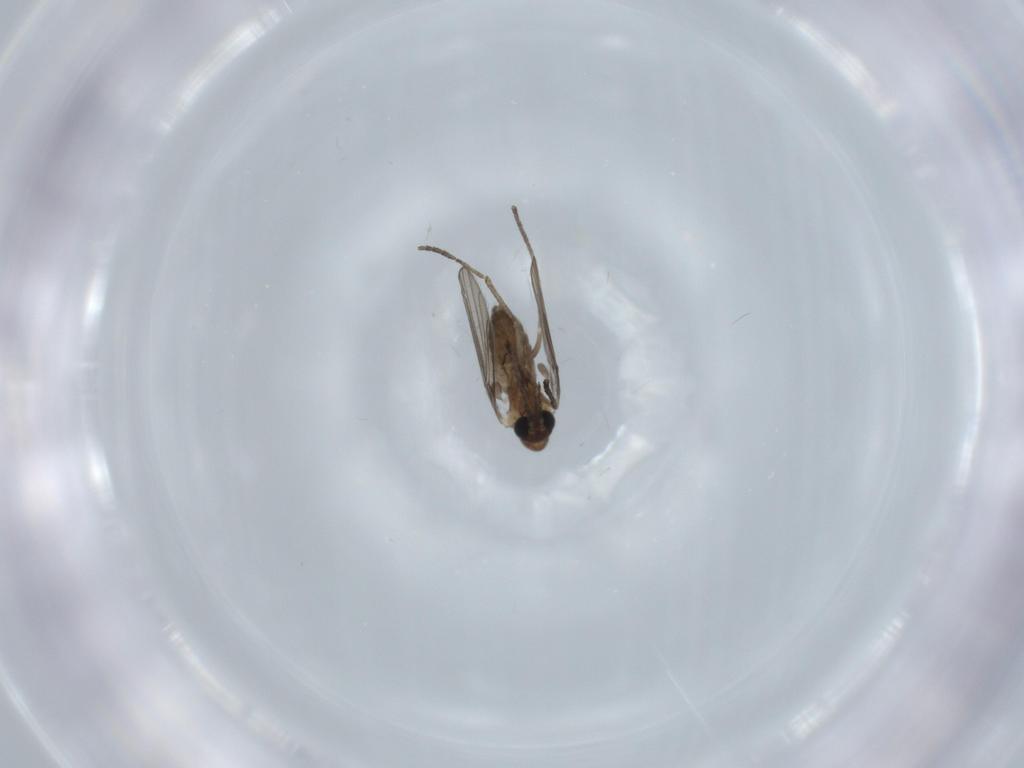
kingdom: Animalia
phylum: Arthropoda
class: Insecta
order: Diptera
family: Psychodidae
